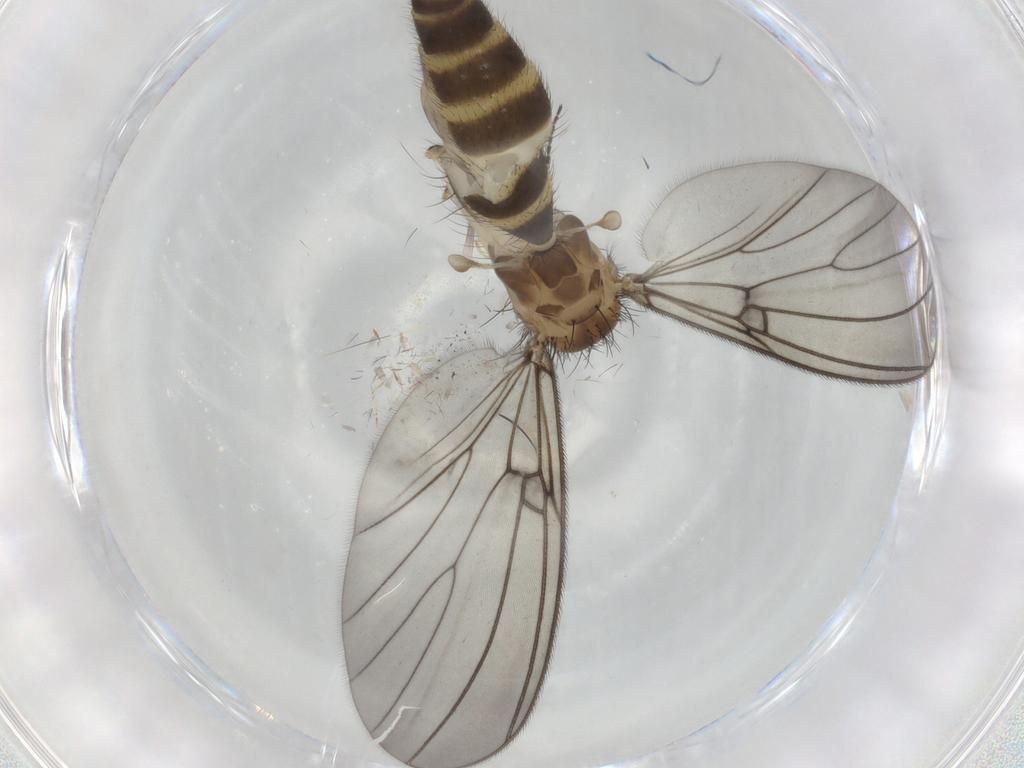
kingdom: Animalia
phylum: Arthropoda
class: Insecta
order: Diptera
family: Mycetophilidae
